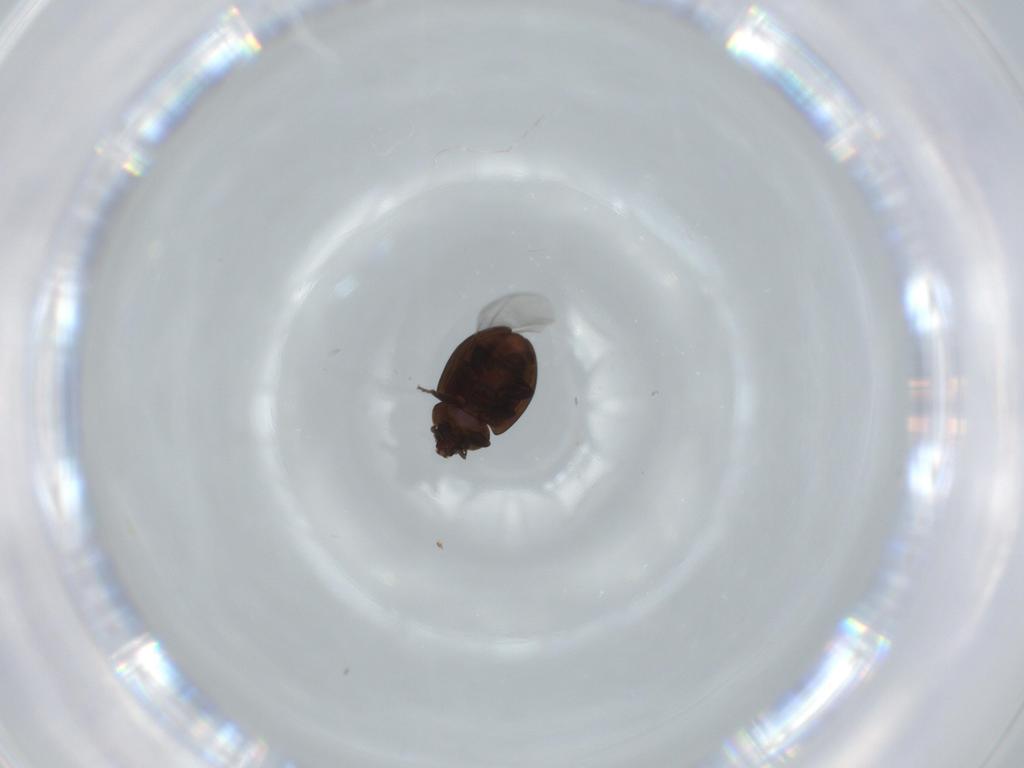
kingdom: Animalia
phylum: Arthropoda
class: Insecta
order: Coleoptera
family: Coccinellidae
